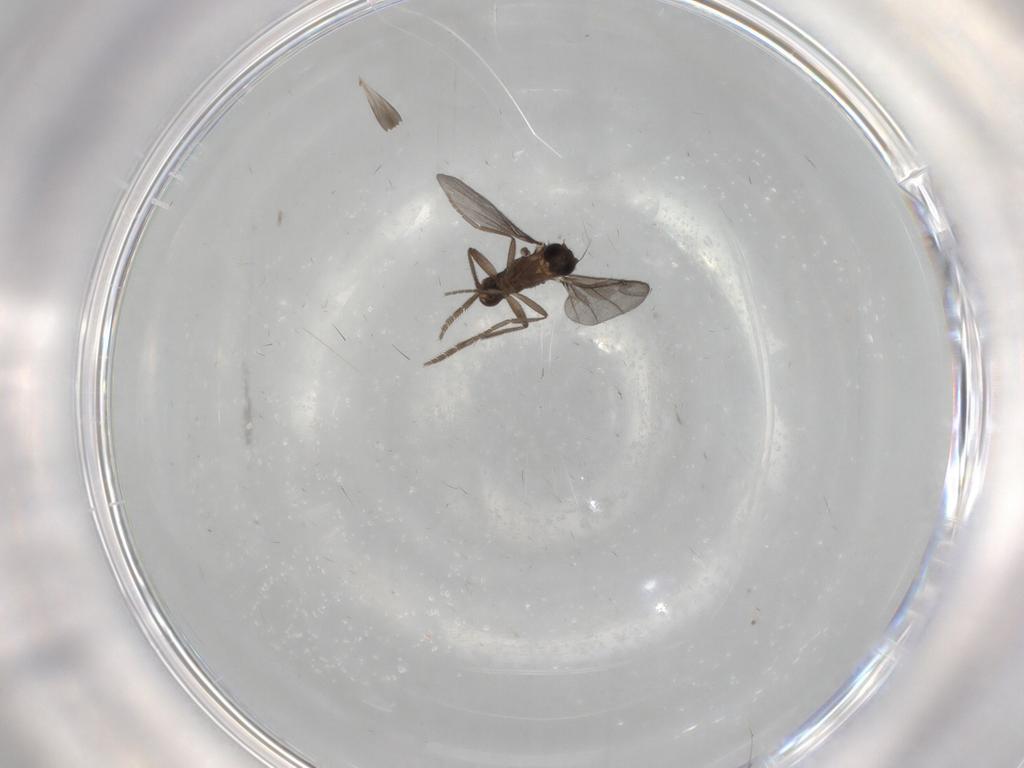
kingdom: Animalia
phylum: Arthropoda
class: Insecta
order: Diptera
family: Phoridae
